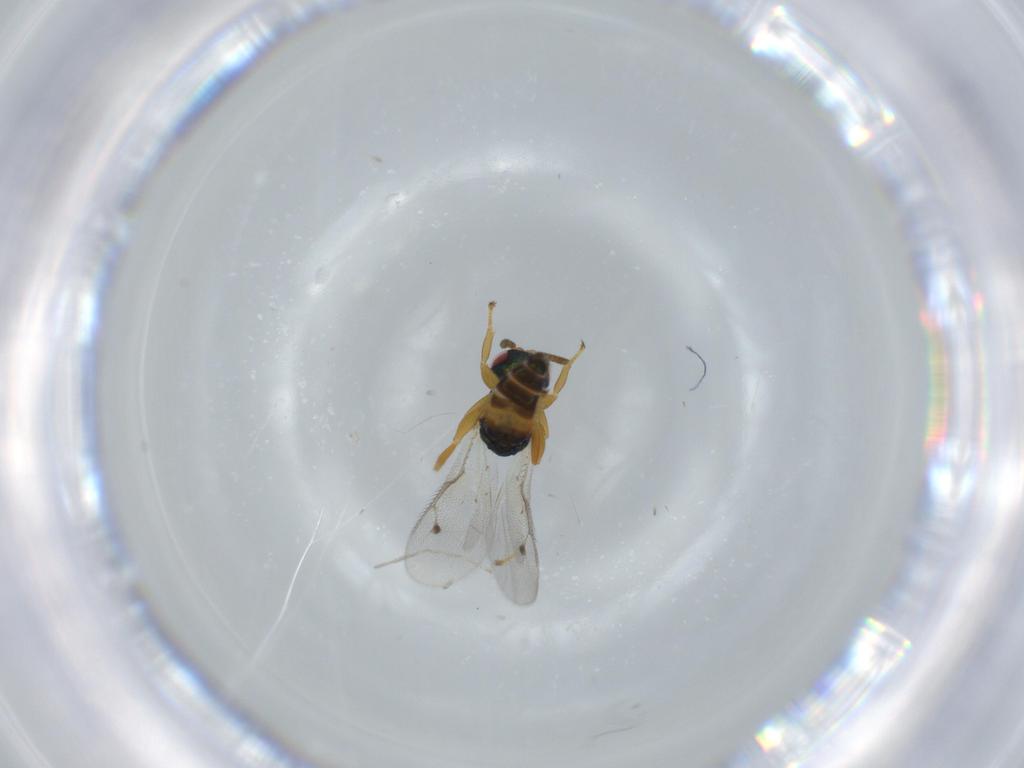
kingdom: Animalia
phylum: Arthropoda
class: Insecta
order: Hymenoptera
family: Pteromalidae
